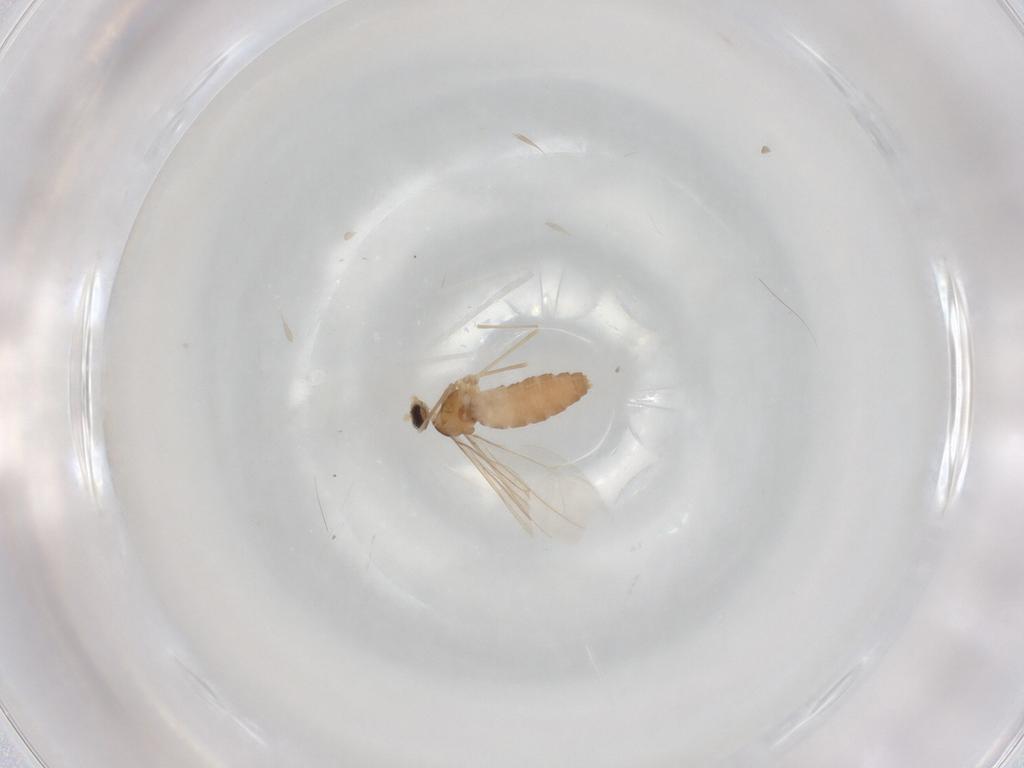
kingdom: Animalia
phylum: Arthropoda
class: Insecta
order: Diptera
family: Cecidomyiidae
